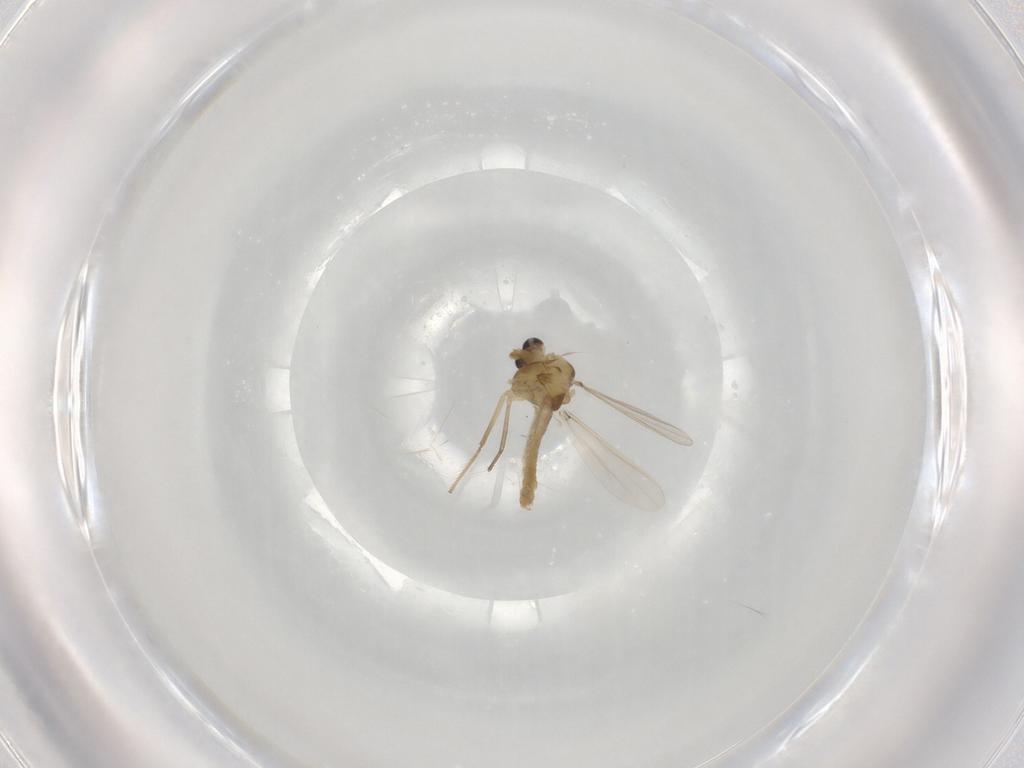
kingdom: Animalia
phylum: Arthropoda
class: Insecta
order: Diptera
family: Chironomidae
